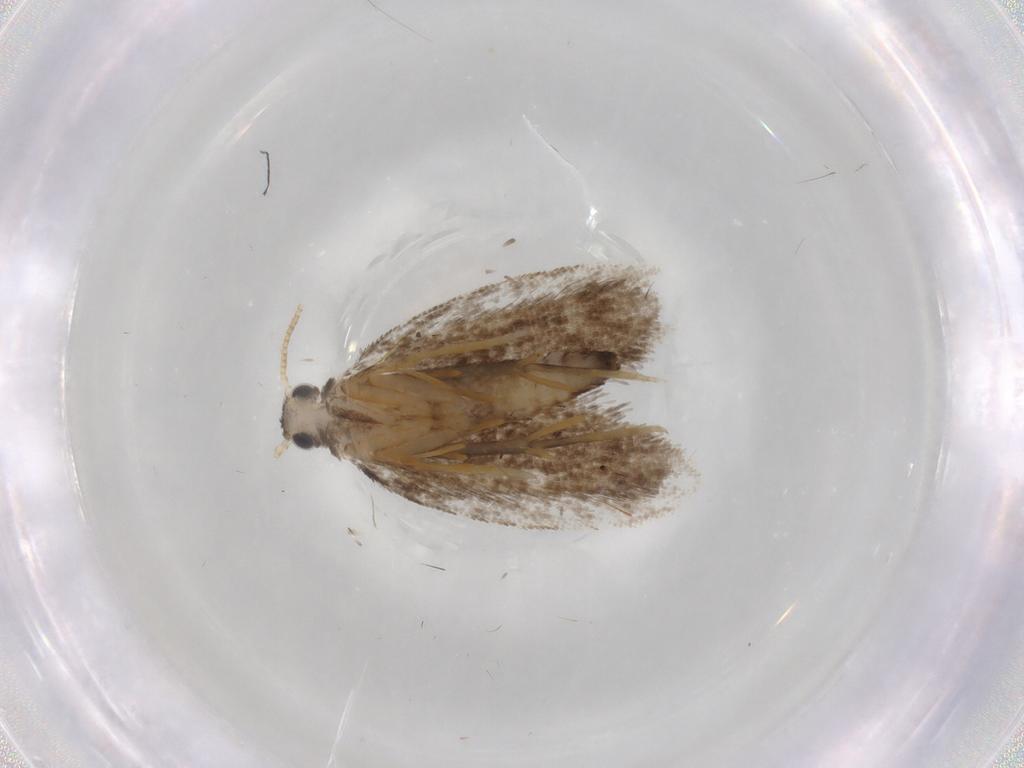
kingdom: Animalia
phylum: Arthropoda
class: Insecta
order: Lepidoptera
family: Psychidae
